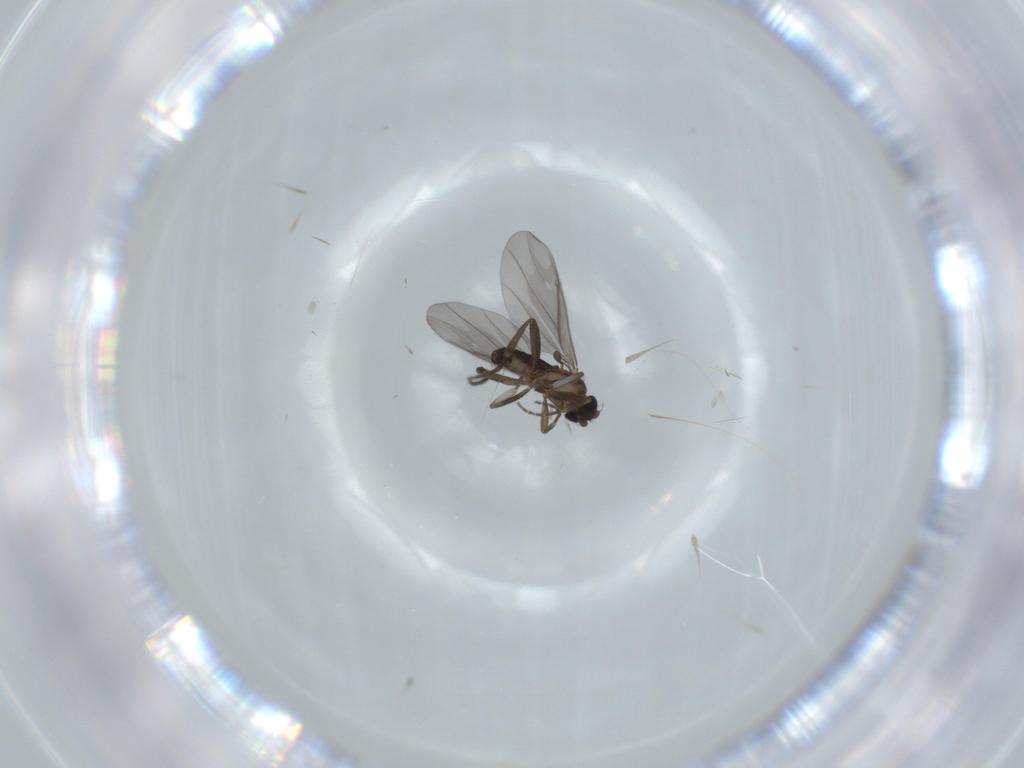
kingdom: Animalia
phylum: Arthropoda
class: Insecta
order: Diptera
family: Phoridae
